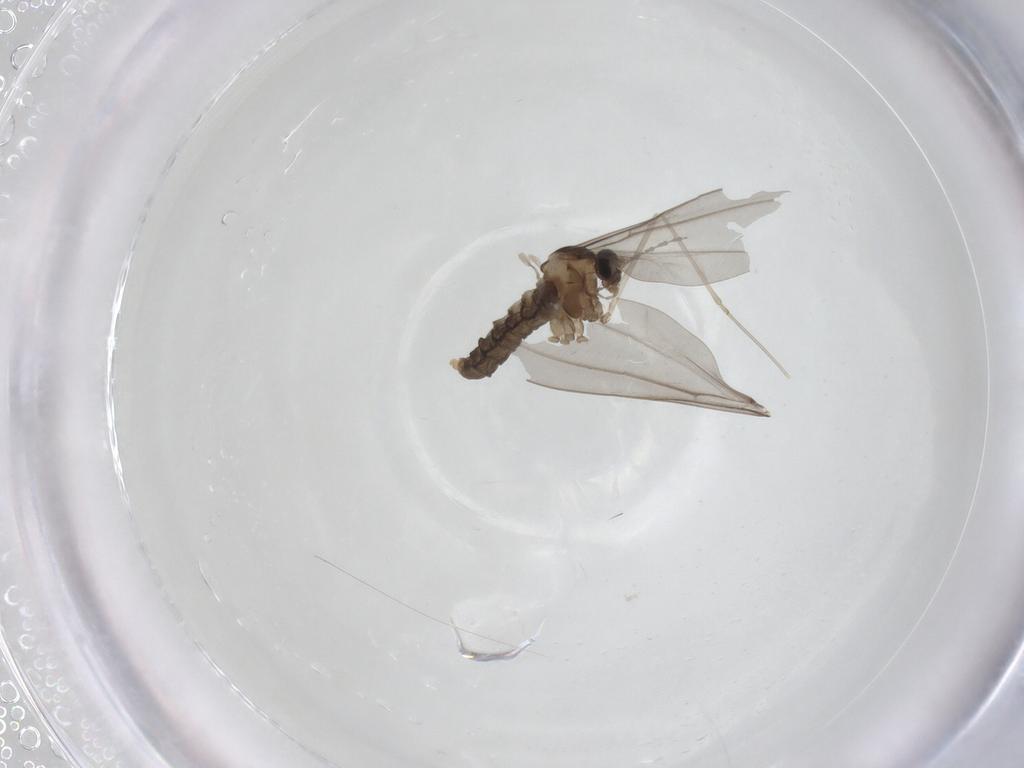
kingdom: Animalia
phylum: Arthropoda
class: Insecta
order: Diptera
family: Cecidomyiidae
